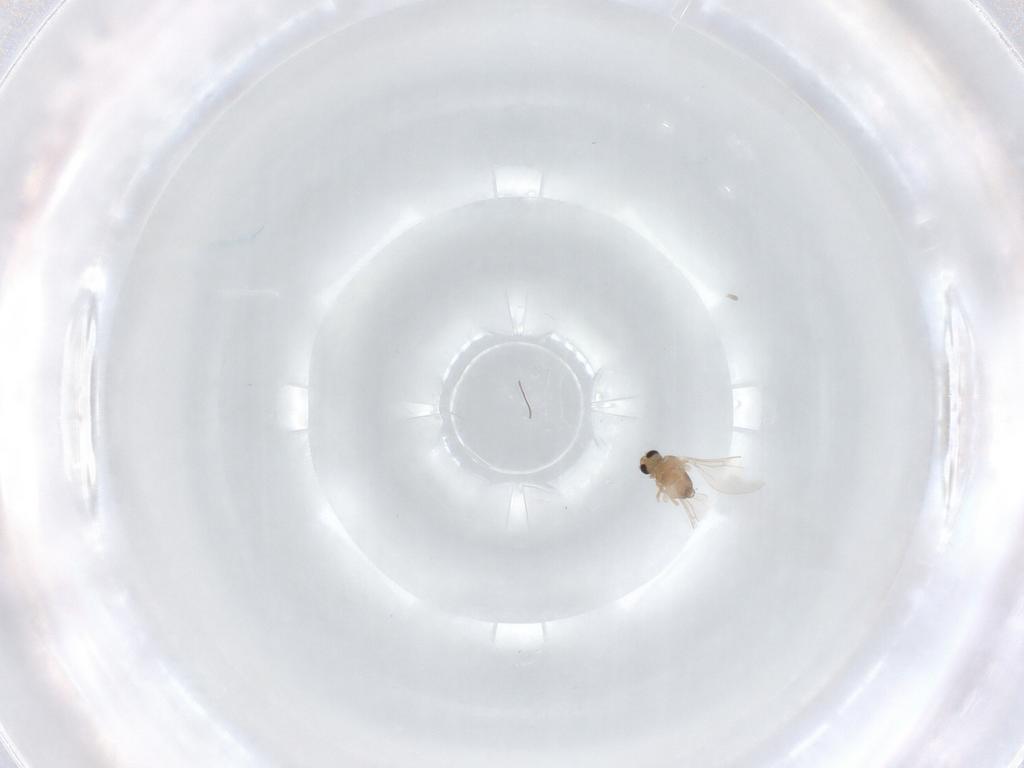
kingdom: Animalia
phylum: Arthropoda
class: Insecta
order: Diptera
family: Cecidomyiidae
